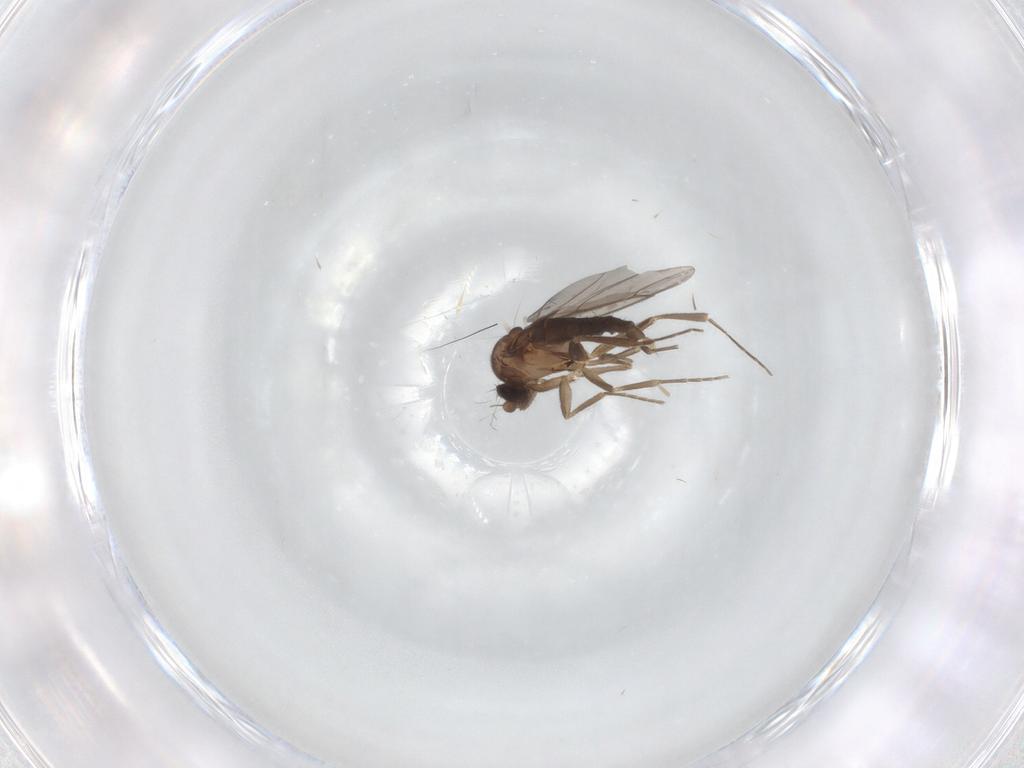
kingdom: Animalia
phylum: Arthropoda
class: Insecta
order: Diptera
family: Ceratopogonidae
